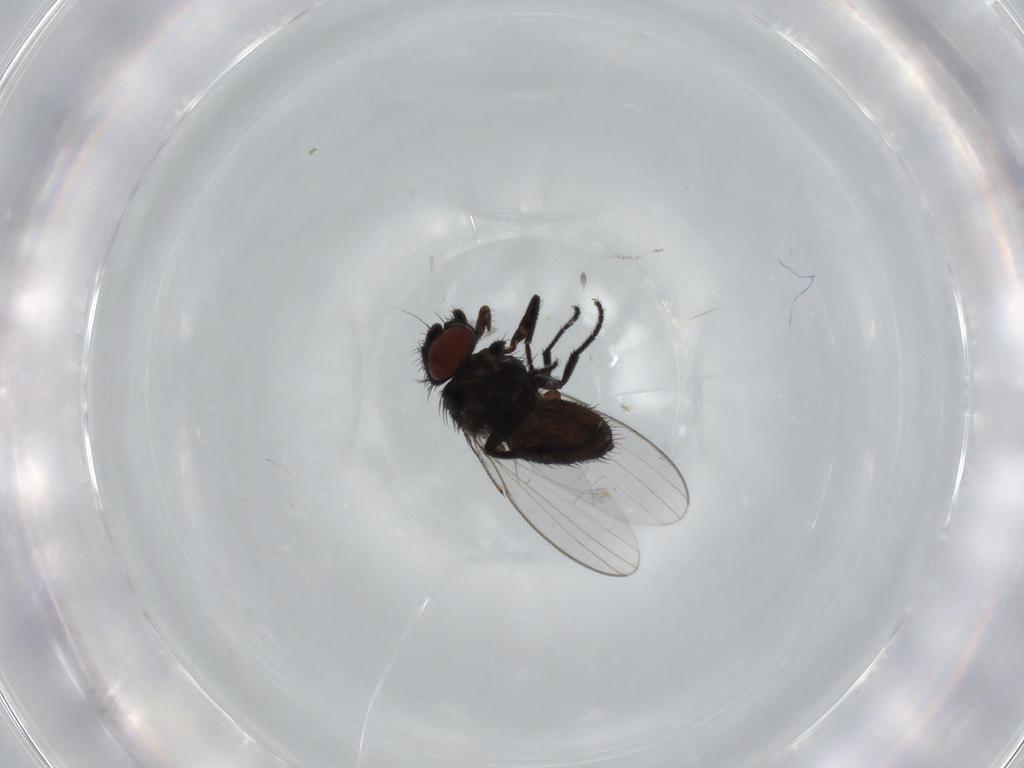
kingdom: Animalia
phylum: Arthropoda
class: Insecta
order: Diptera
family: Milichiidae
